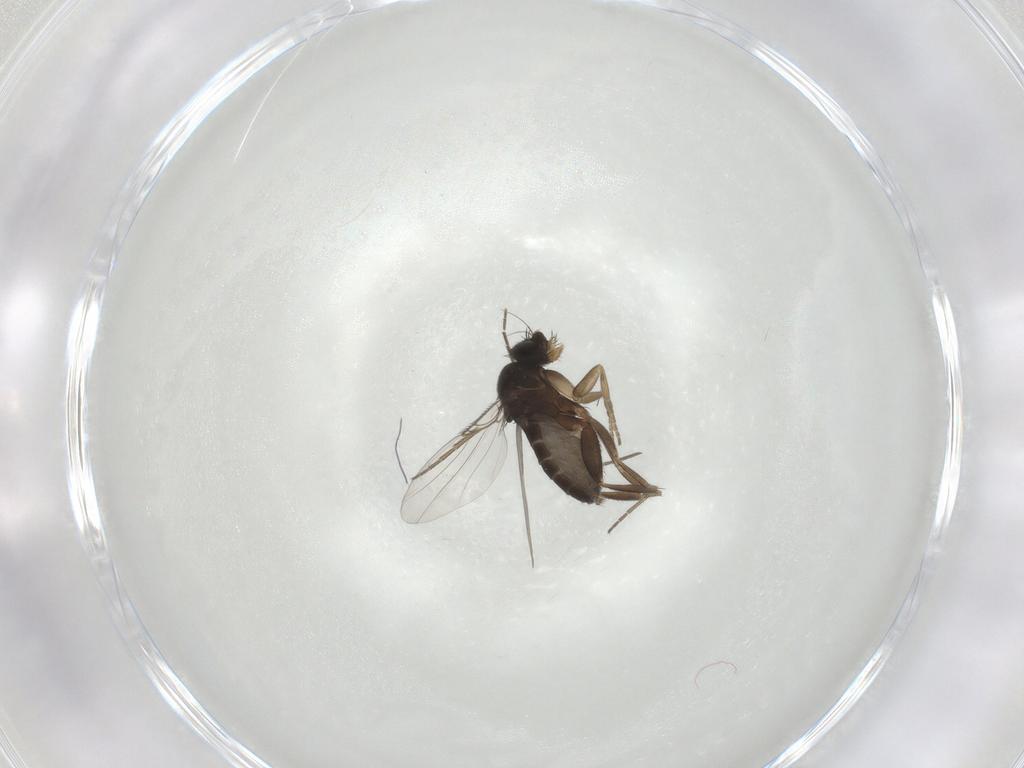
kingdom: Animalia
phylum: Arthropoda
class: Insecta
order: Diptera
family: Phoridae
